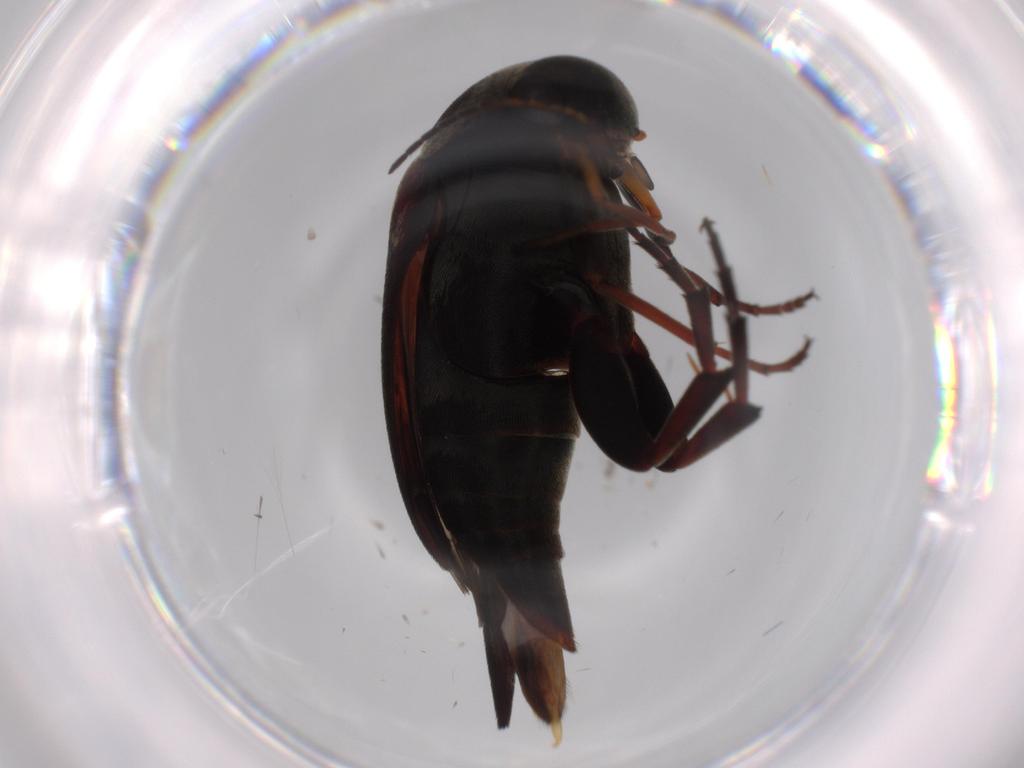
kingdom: Animalia
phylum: Arthropoda
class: Insecta
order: Coleoptera
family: Mordellidae
